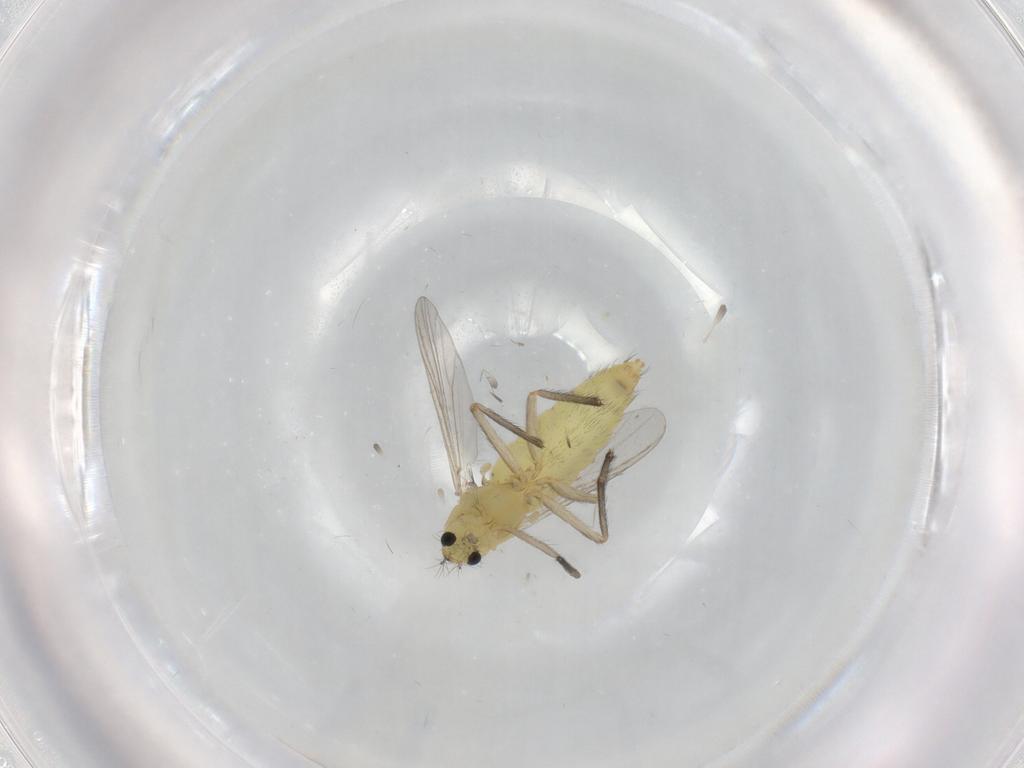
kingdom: Animalia
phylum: Arthropoda
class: Insecta
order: Diptera
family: Chironomidae
